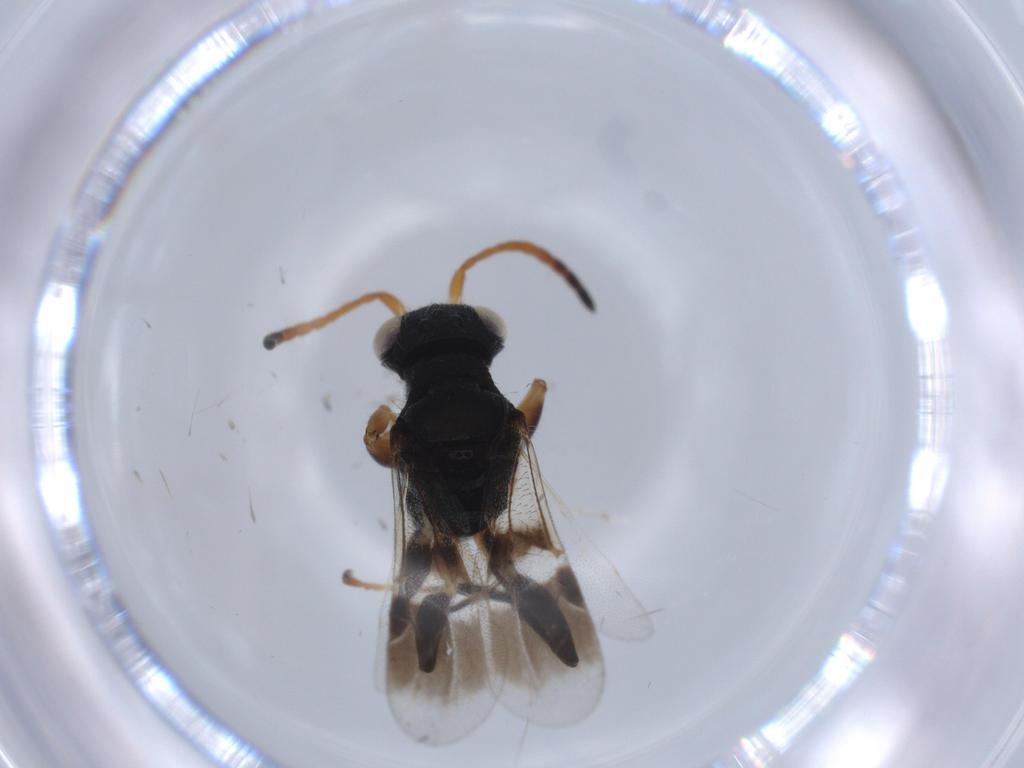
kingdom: Animalia
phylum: Arthropoda
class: Insecta
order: Hymenoptera
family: Dryinidae
